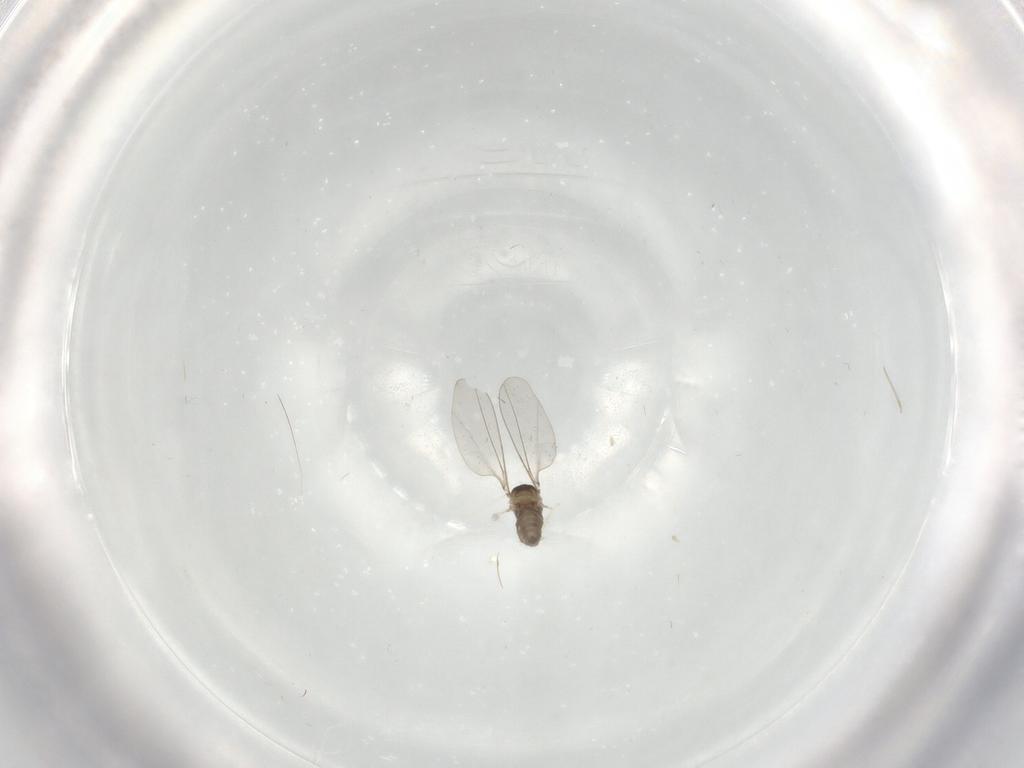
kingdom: Animalia
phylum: Arthropoda
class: Insecta
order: Diptera
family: Cecidomyiidae
